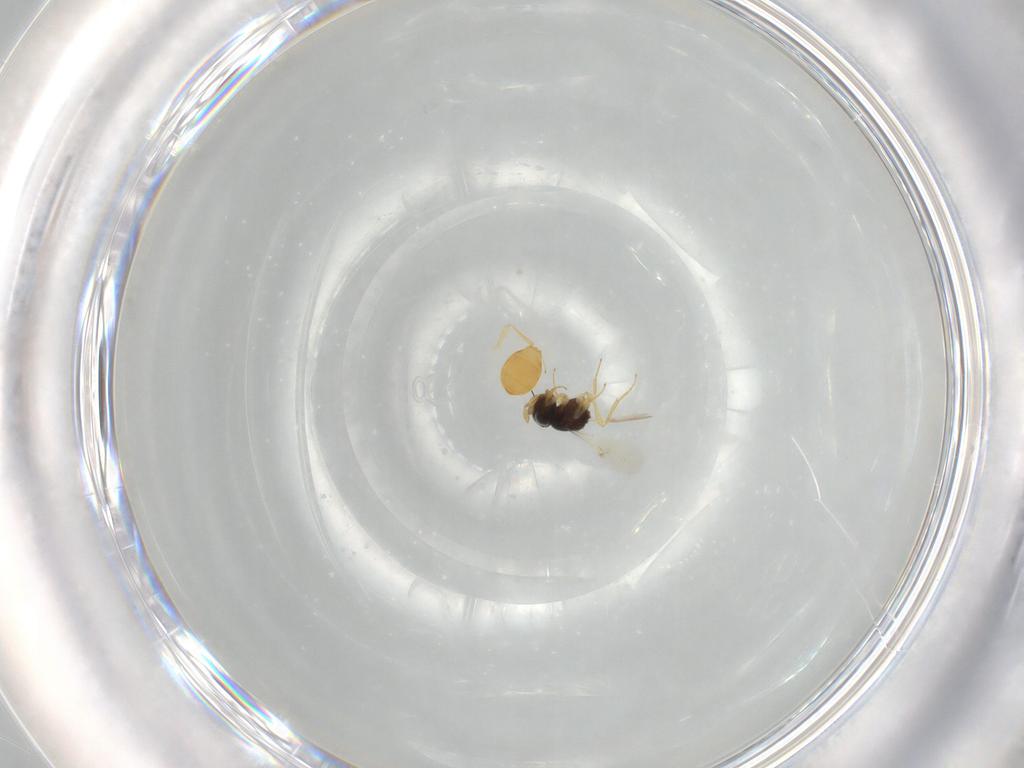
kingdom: Animalia
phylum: Arthropoda
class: Insecta
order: Hymenoptera
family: Scelionidae
